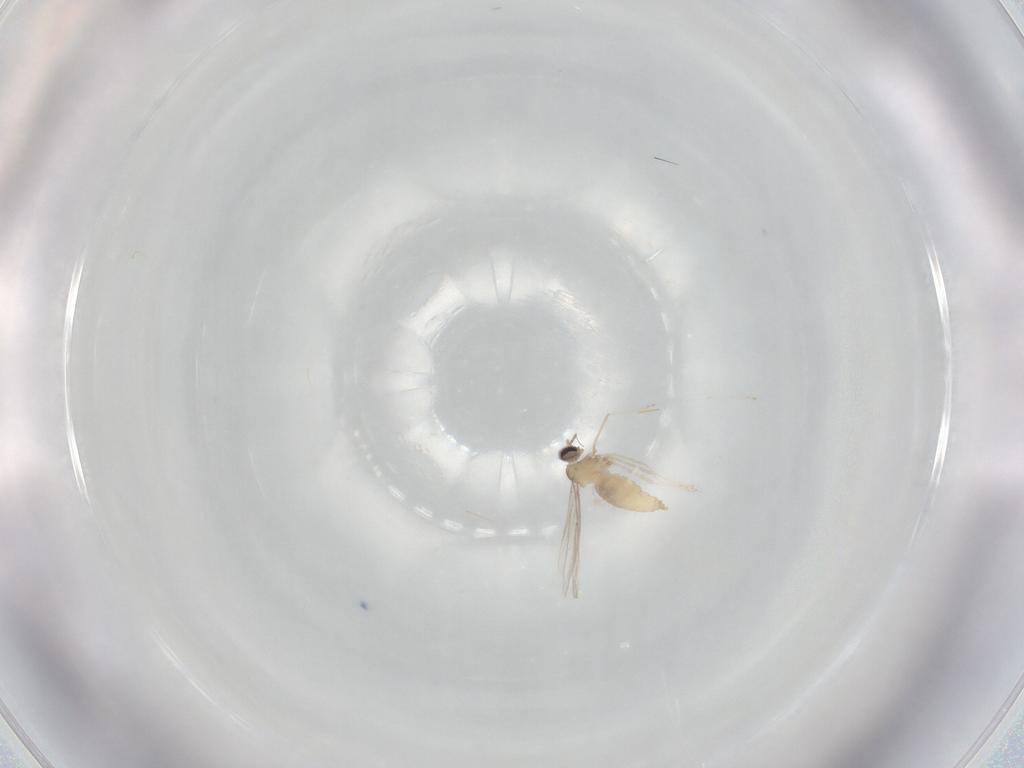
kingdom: Animalia
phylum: Arthropoda
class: Insecta
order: Diptera
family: Cecidomyiidae
